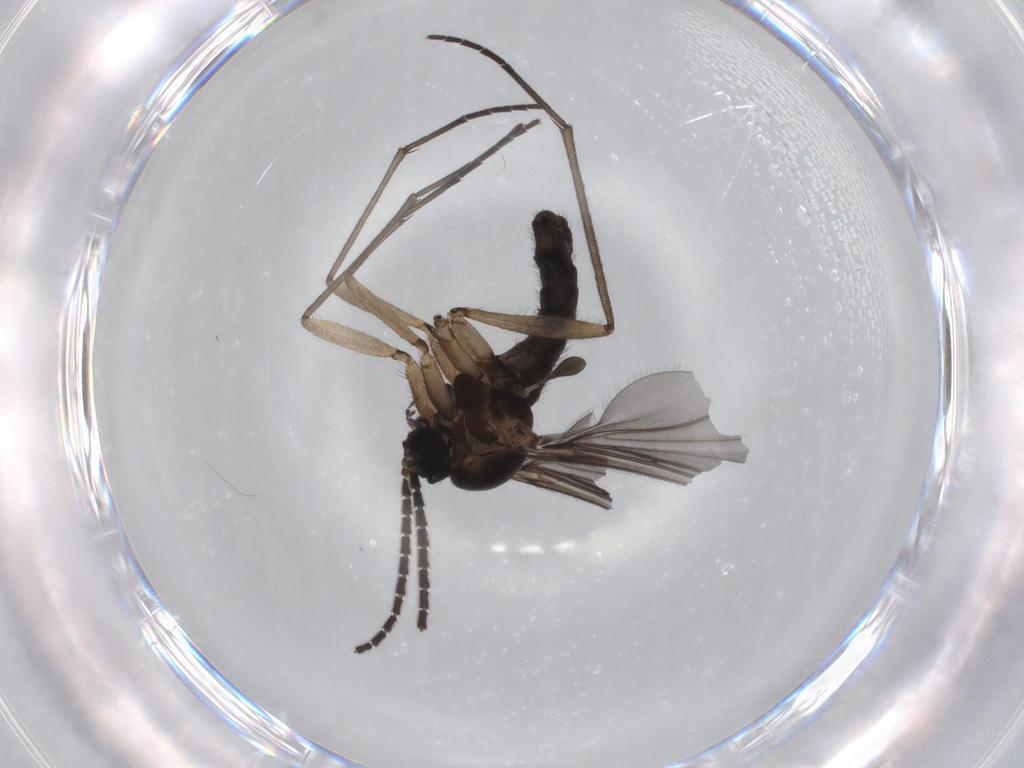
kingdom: Animalia
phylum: Arthropoda
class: Insecta
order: Diptera
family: Sciaridae
